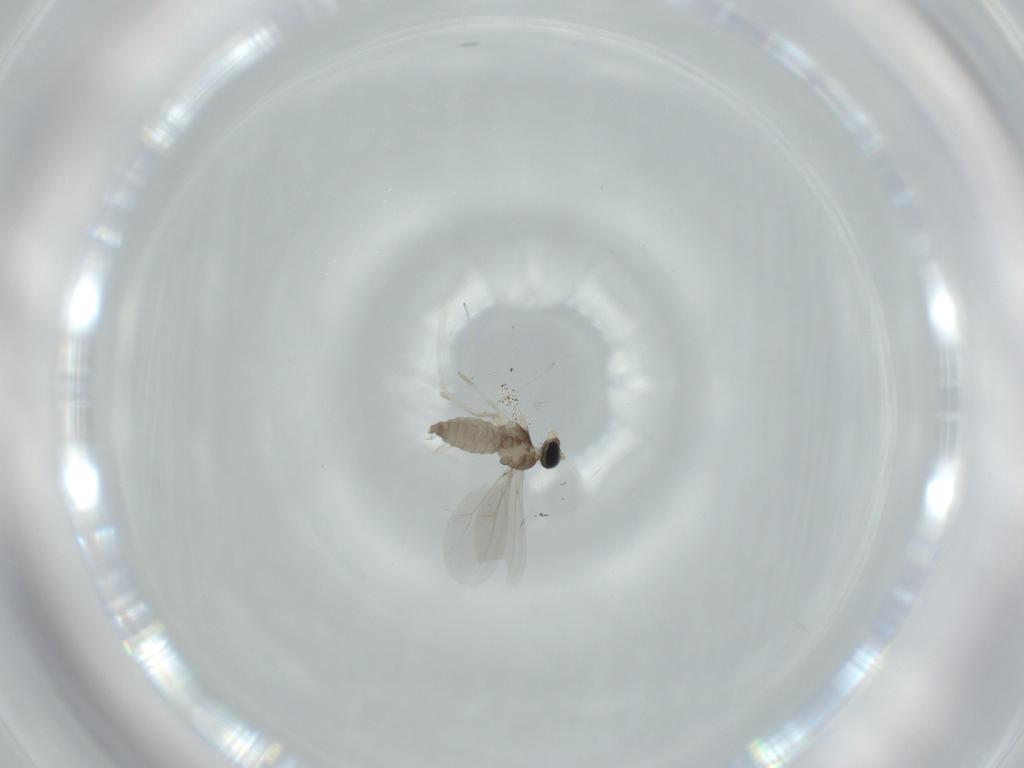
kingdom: Animalia
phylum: Arthropoda
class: Insecta
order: Diptera
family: Cecidomyiidae
